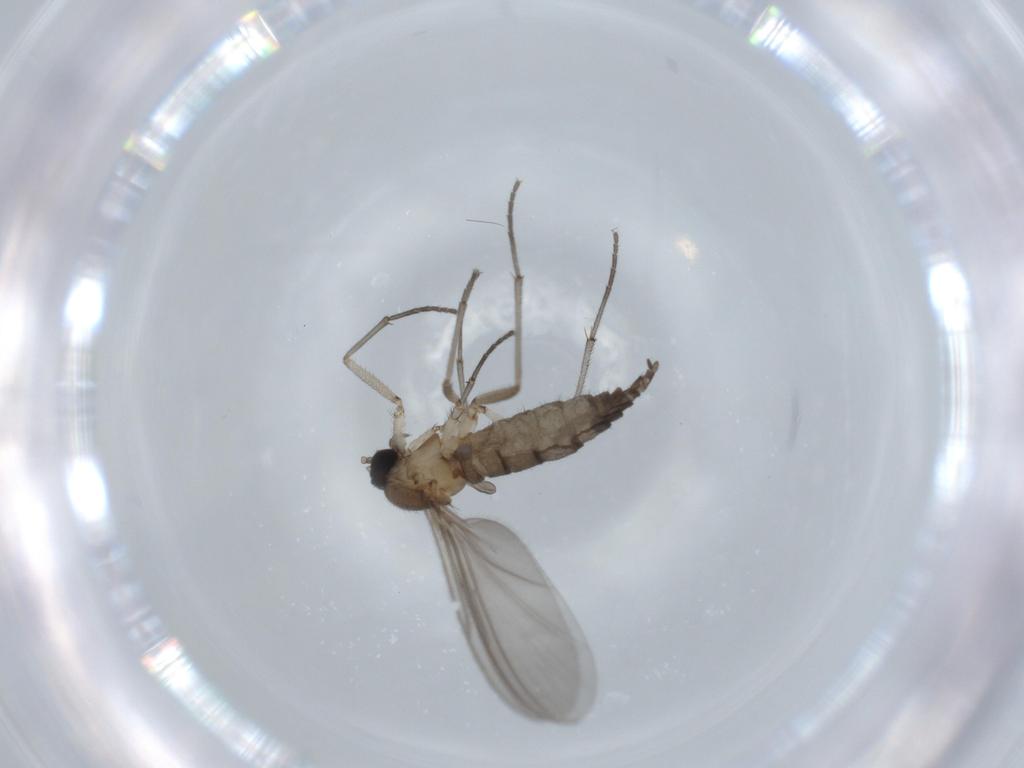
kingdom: Animalia
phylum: Arthropoda
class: Insecta
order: Diptera
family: Sciaridae
